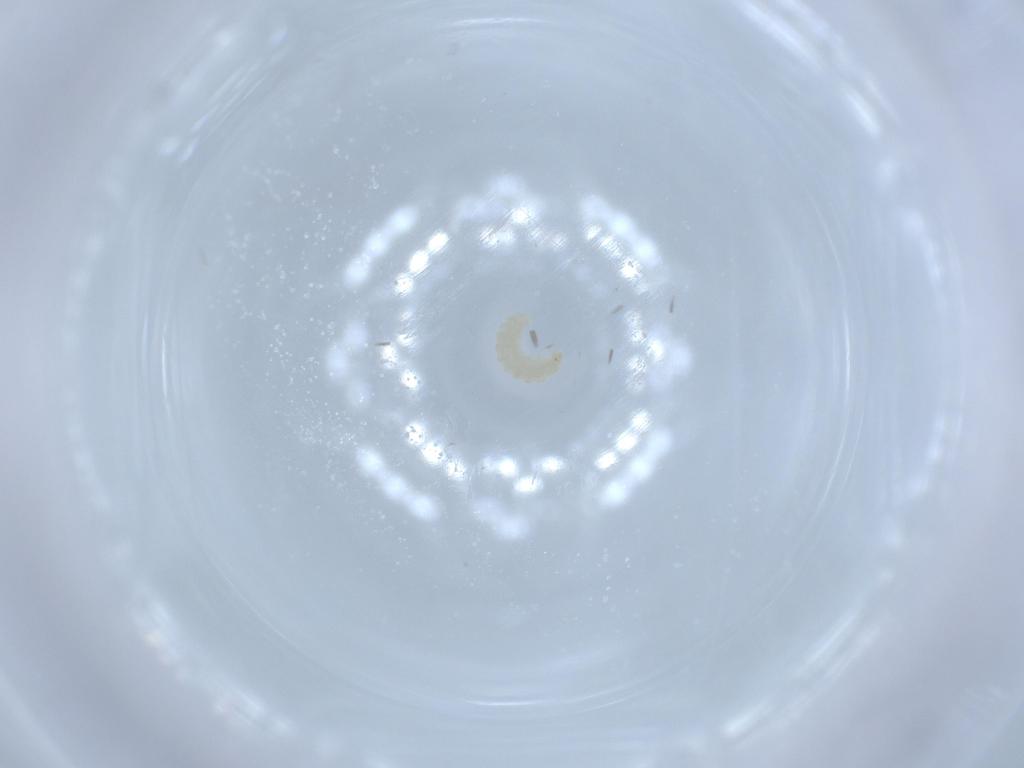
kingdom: Animalia
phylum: Arthropoda
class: Insecta
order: Coleoptera
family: Cantharidae
